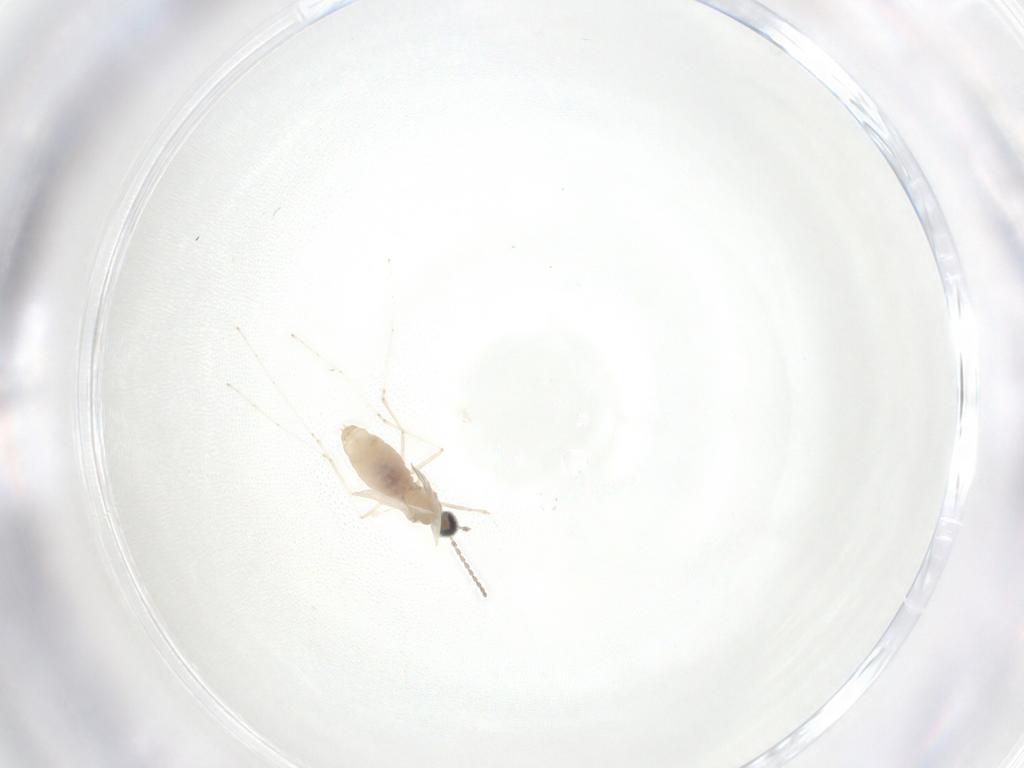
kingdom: Animalia
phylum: Arthropoda
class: Insecta
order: Diptera
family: Cecidomyiidae
